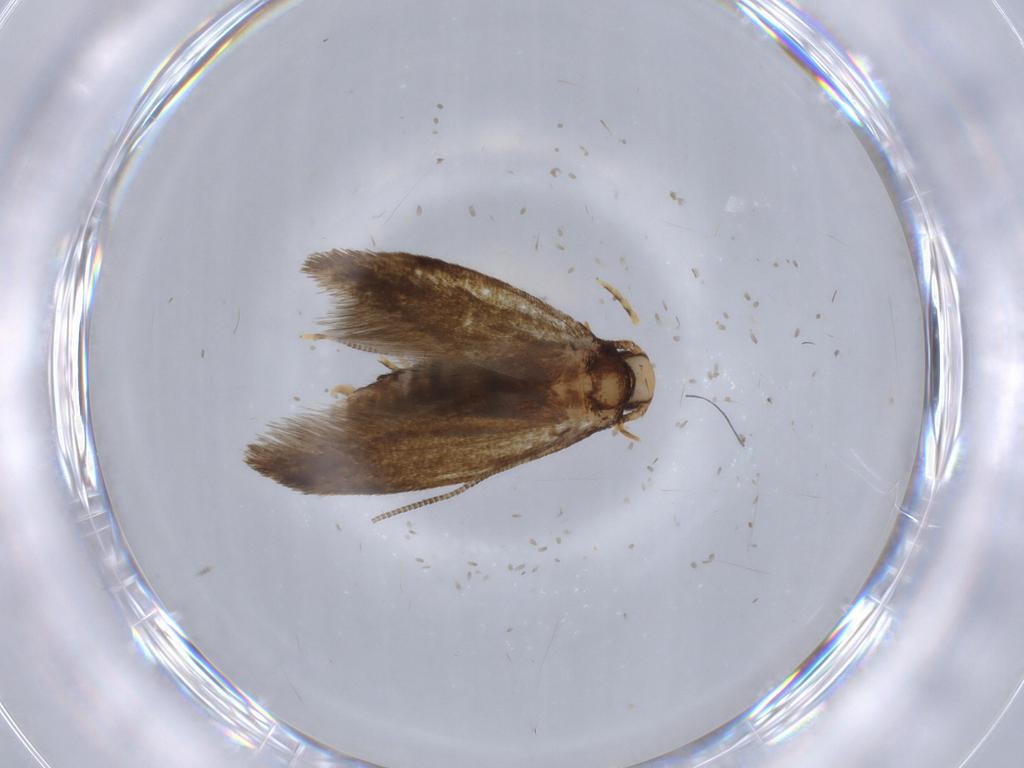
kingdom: Animalia
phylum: Arthropoda
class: Insecta
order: Lepidoptera
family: Tineidae
